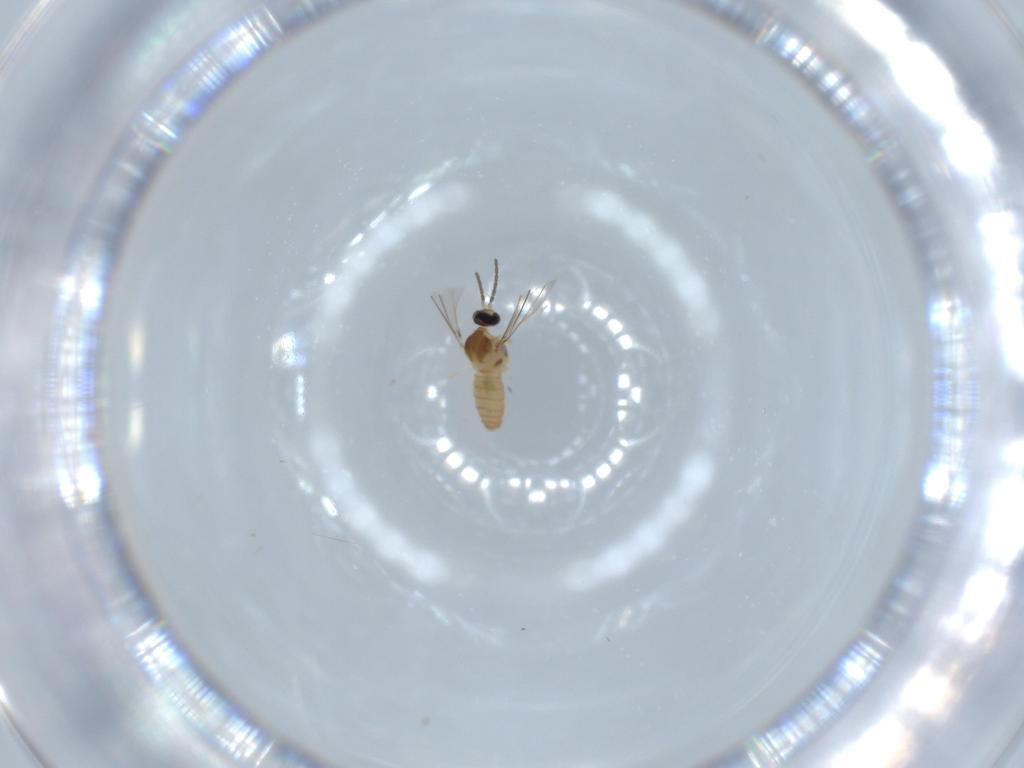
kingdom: Animalia
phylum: Arthropoda
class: Insecta
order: Diptera
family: Cecidomyiidae
